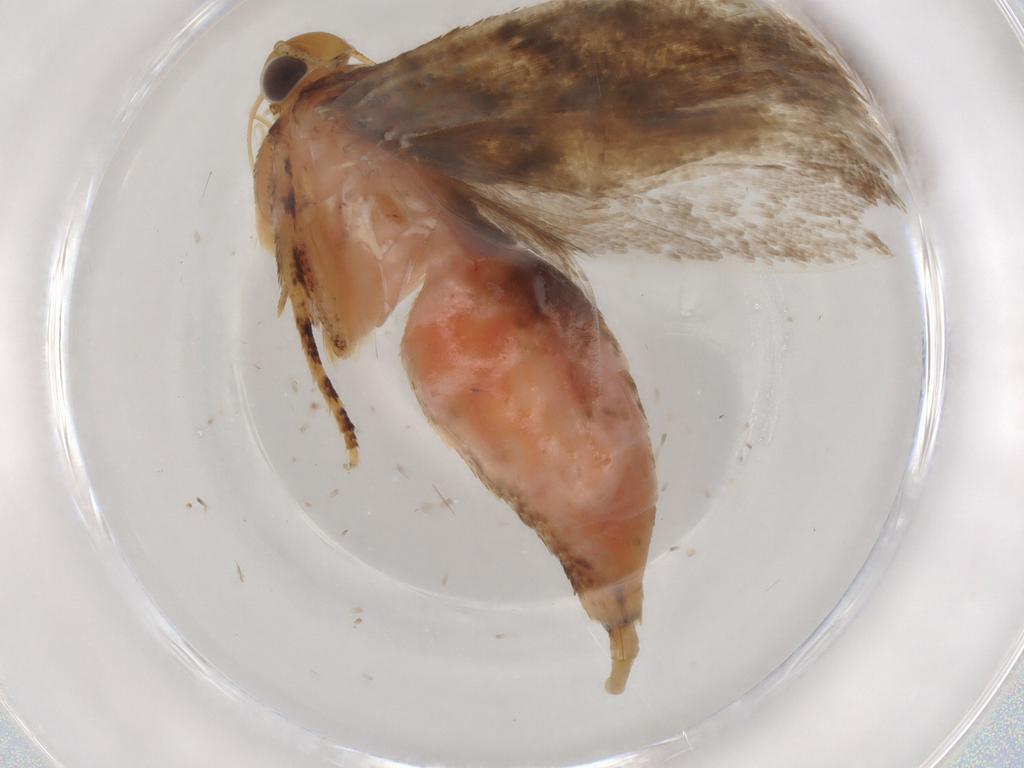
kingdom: Animalia
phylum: Arthropoda
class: Insecta
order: Lepidoptera
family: Gelechiidae
